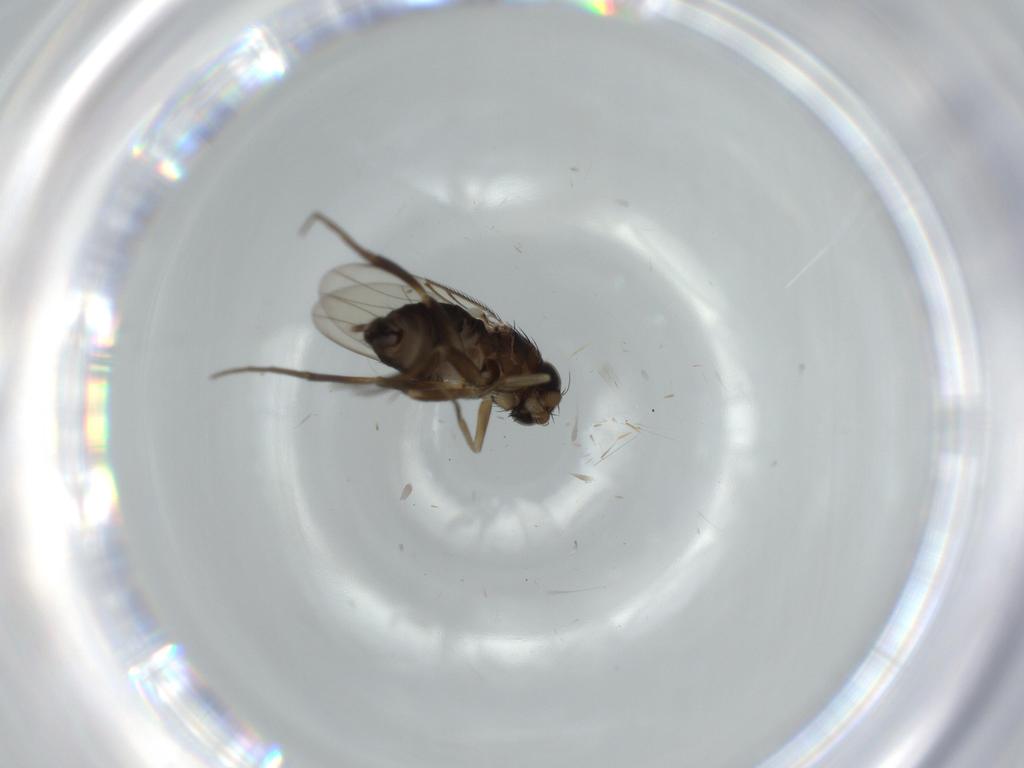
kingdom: Animalia
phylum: Arthropoda
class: Insecta
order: Diptera
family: Phoridae
